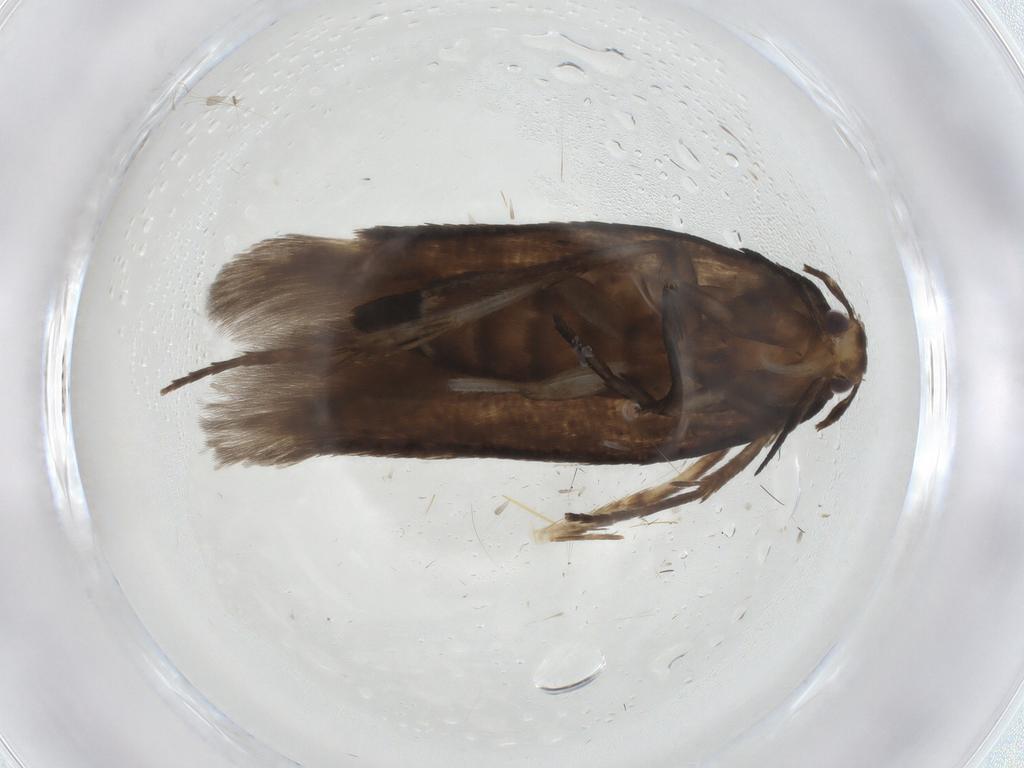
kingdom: Animalia
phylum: Arthropoda
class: Insecta
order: Lepidoptera
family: Cosmopterigidae
